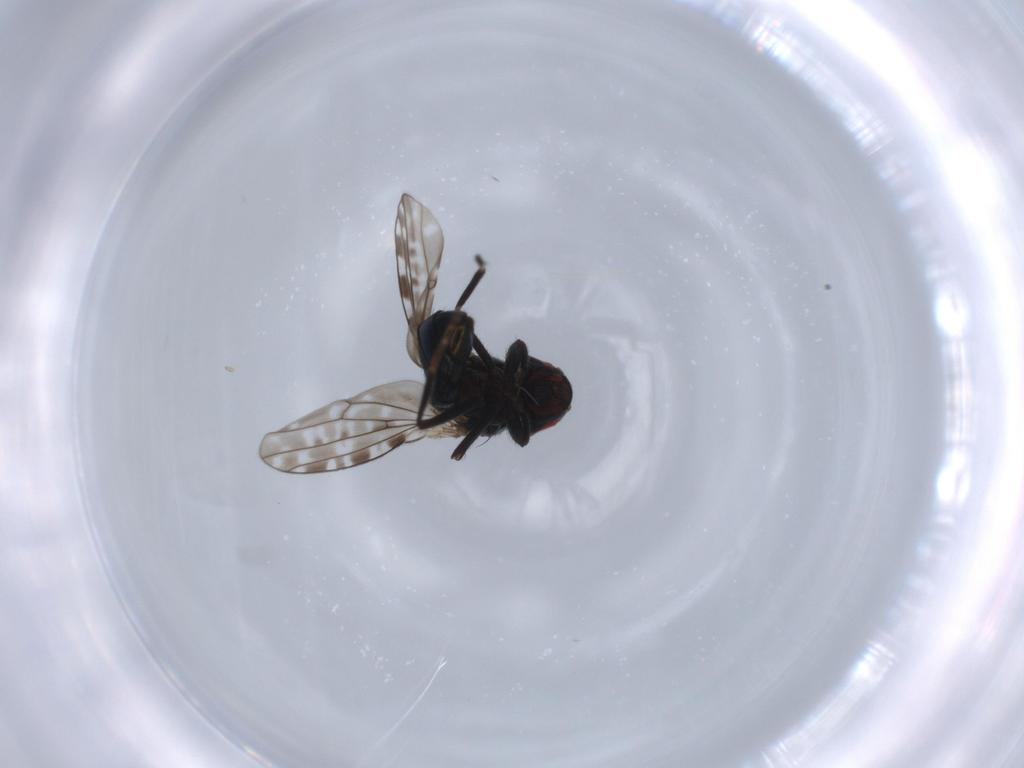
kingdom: Animalia
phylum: Arthropoda
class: Insecta
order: Diptera
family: Ephydridae
